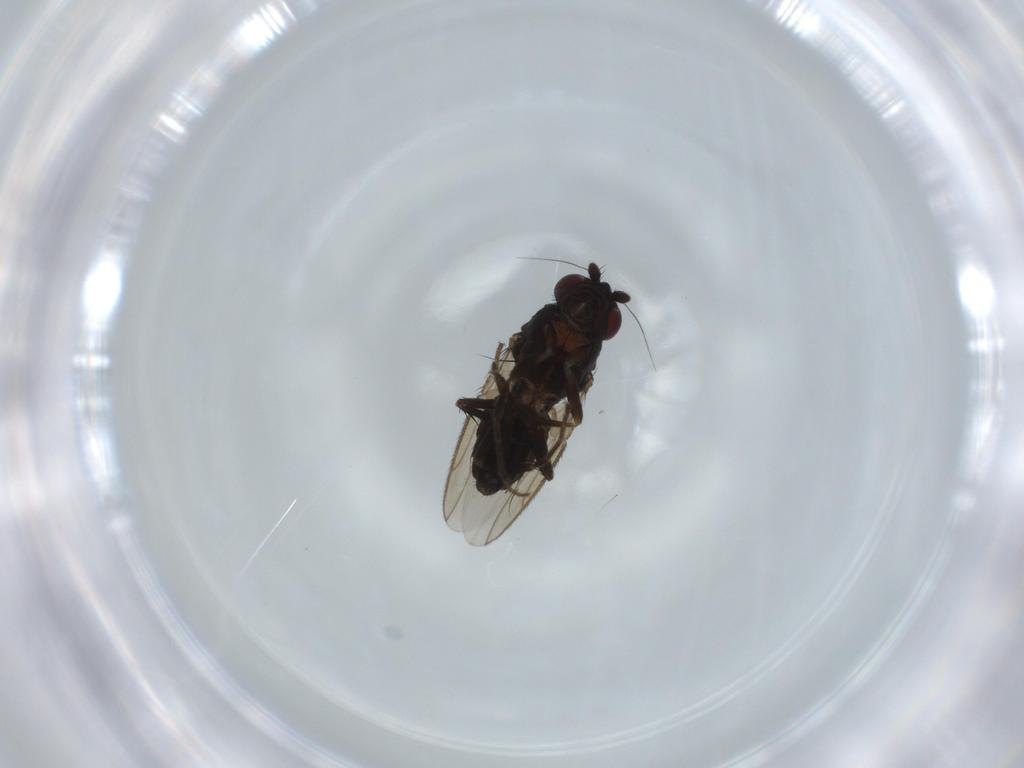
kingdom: Animalia
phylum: Arthropoda
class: Insecta
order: Diptera
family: Sphaeroceridae
